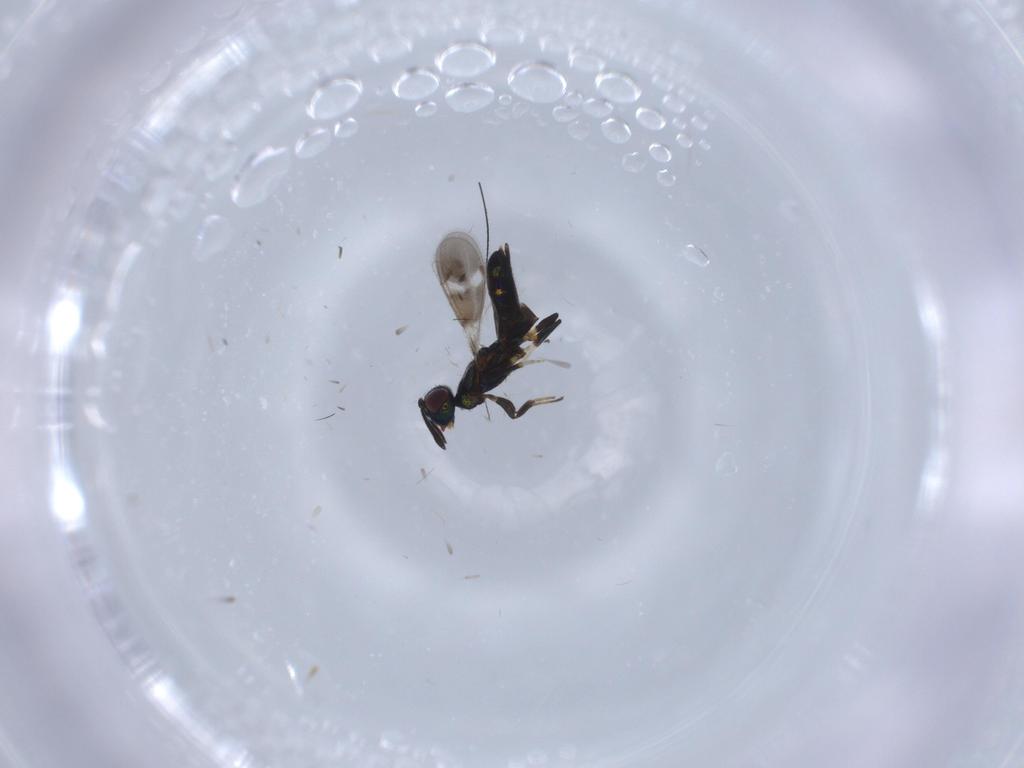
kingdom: Animalia
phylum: Arthropoda
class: Insecta
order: Hymenoptera
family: Eupelmidae
